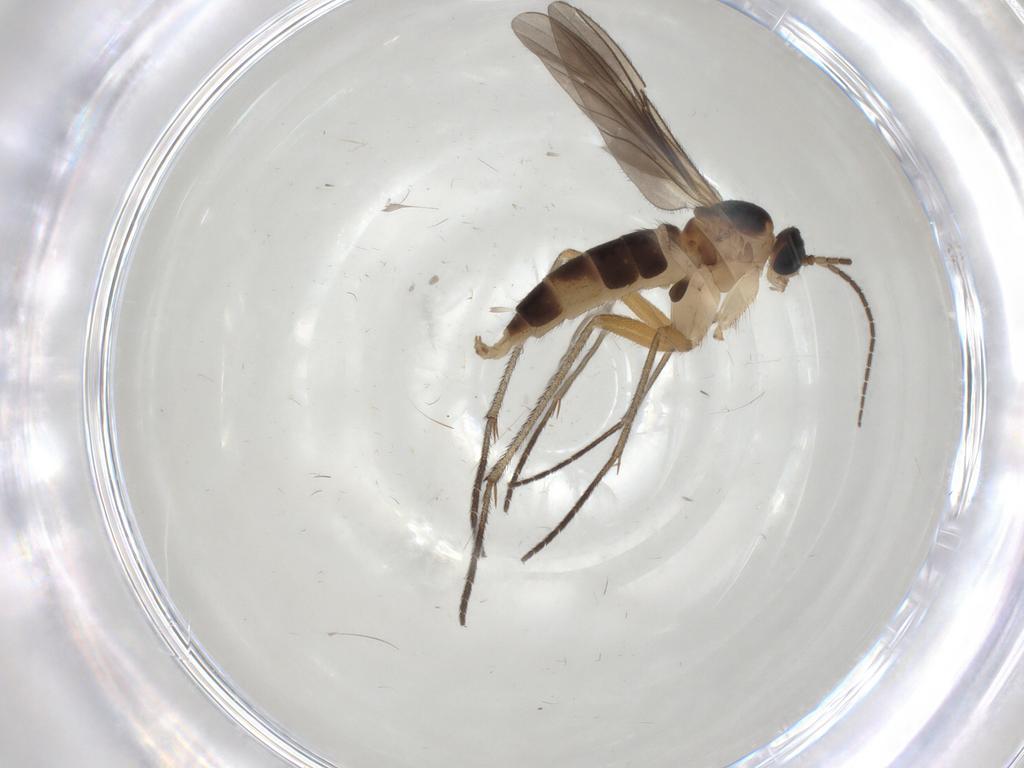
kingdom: Animalia
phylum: Arthropoda
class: Insecta
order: Diptera
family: Sciaridae
